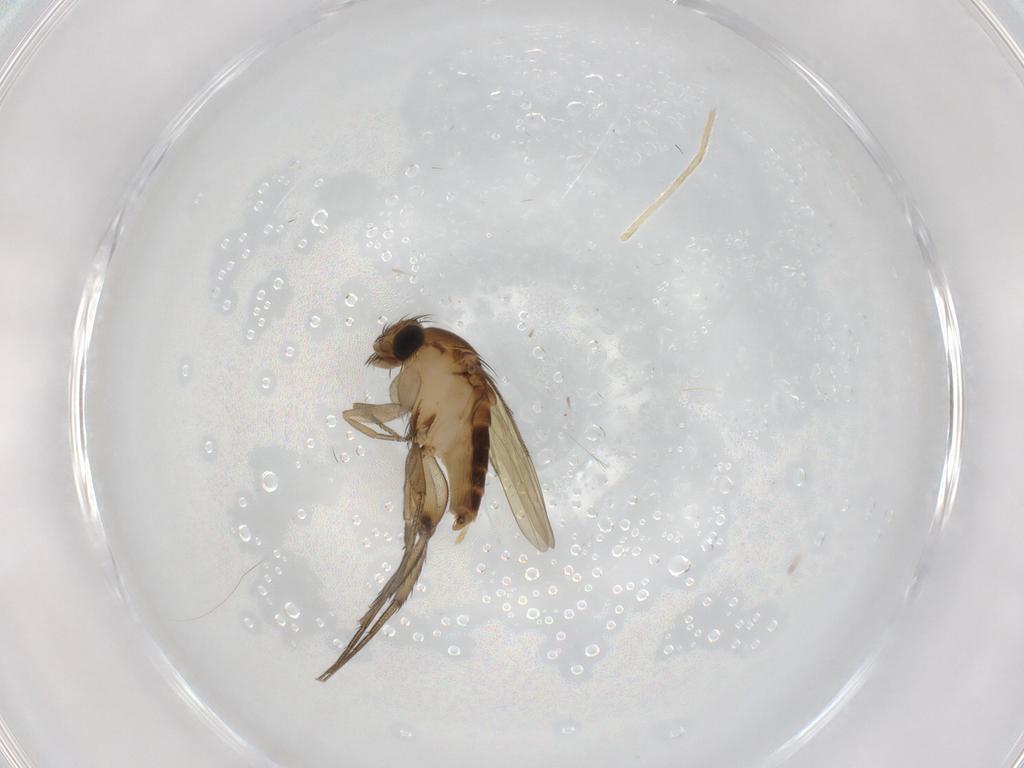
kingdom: Animalia
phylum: Arthropoda
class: Insecta
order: Diptera
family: Phoridae
